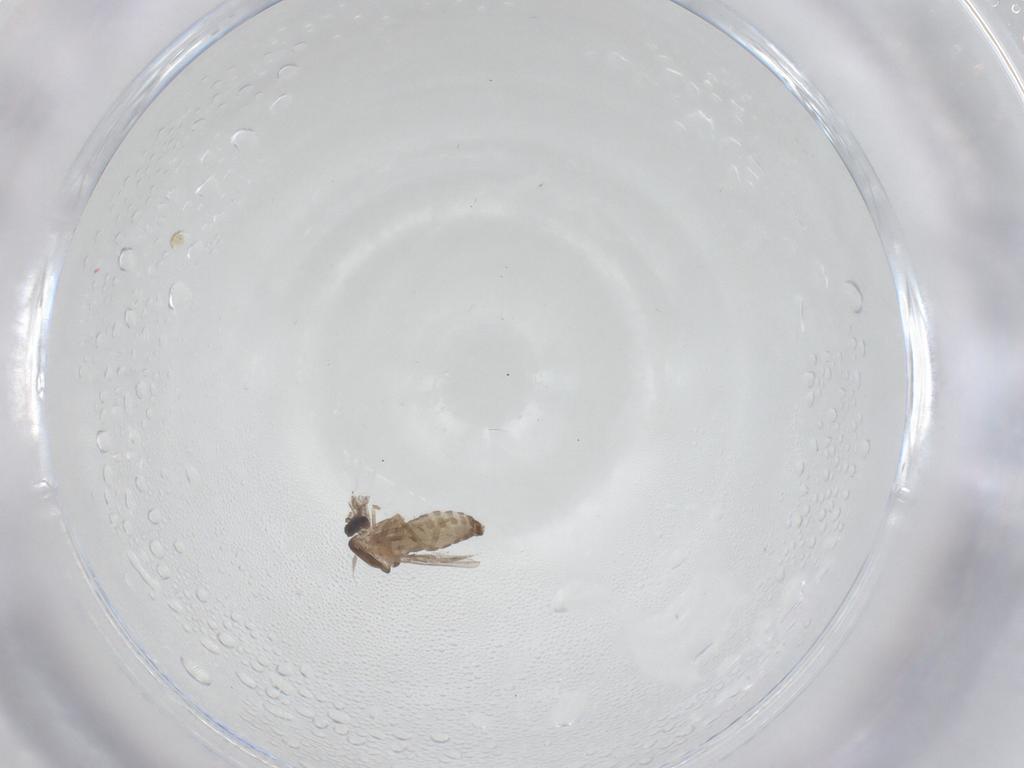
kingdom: Animalia
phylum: Arthropoda
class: Insecta
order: Diptera
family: Ceratopogonidae
